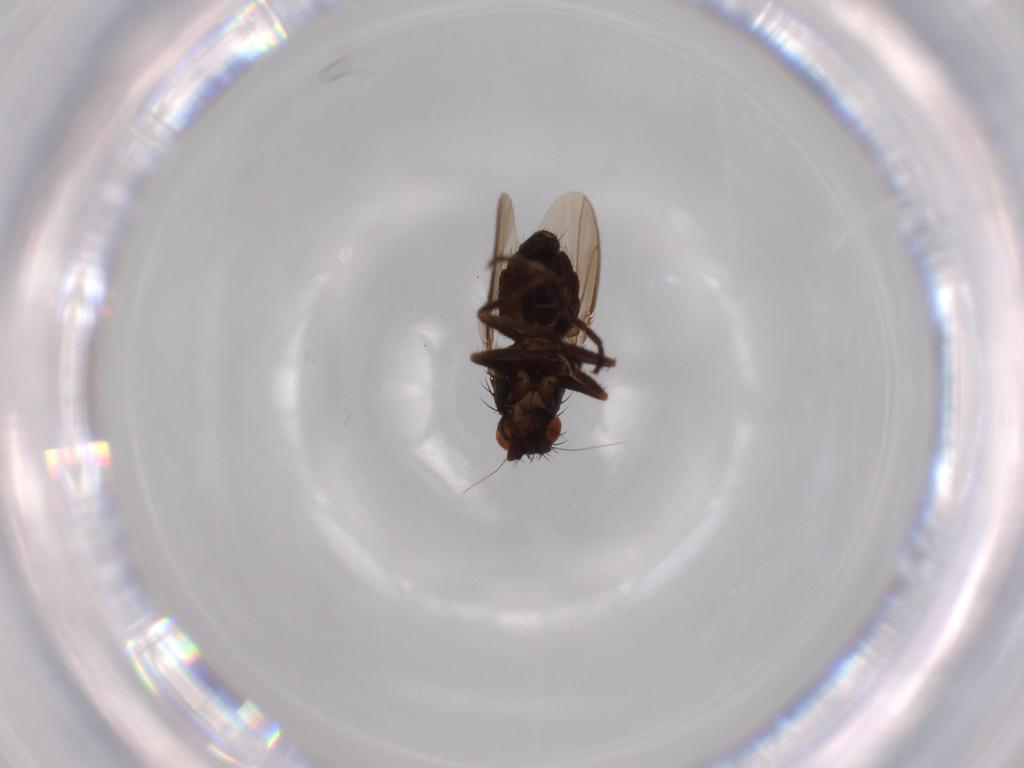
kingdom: Animalia
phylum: Arthropoda
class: Insecta
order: Diptera
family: Sphaeroceridae
